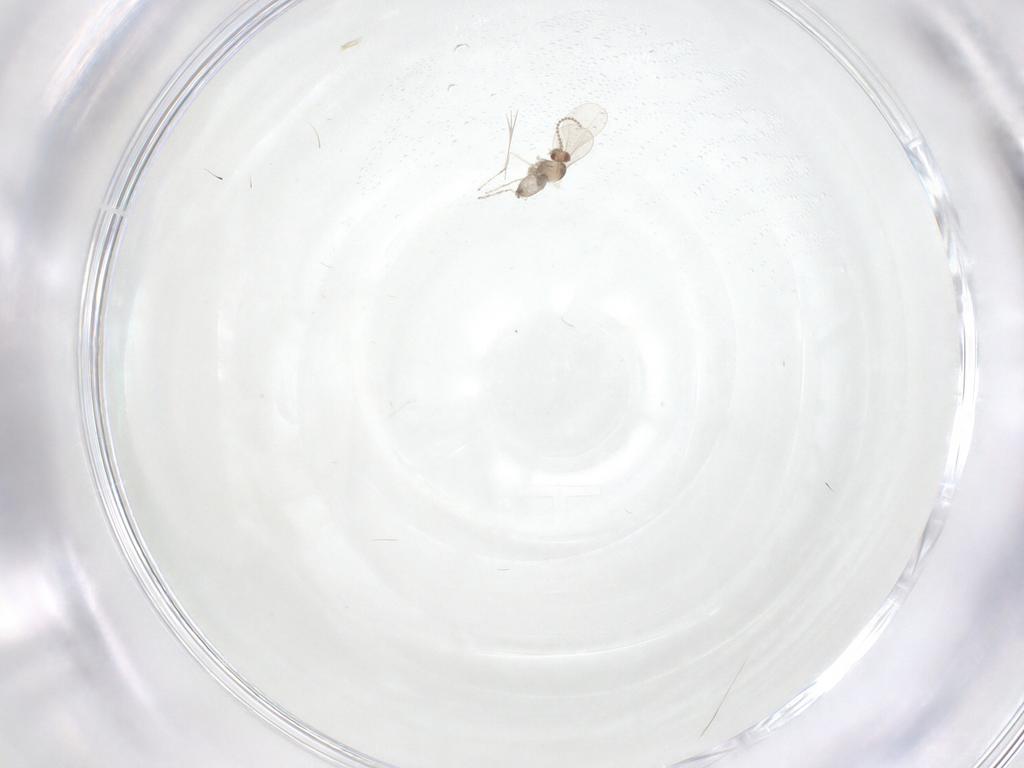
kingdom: Animalia
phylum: Arthropoda
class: Insecta
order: Diptera
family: Cecidomyiidae
